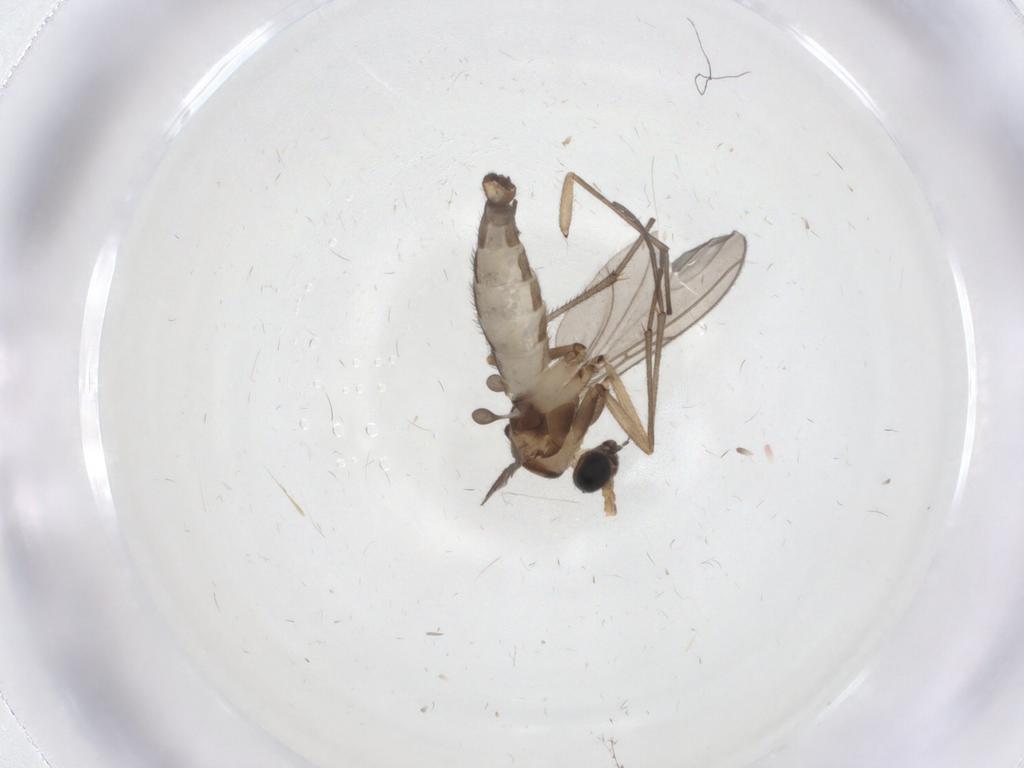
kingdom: Animalia
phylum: Arthropoda
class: Insecta
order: Diptera
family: Sciaridae
